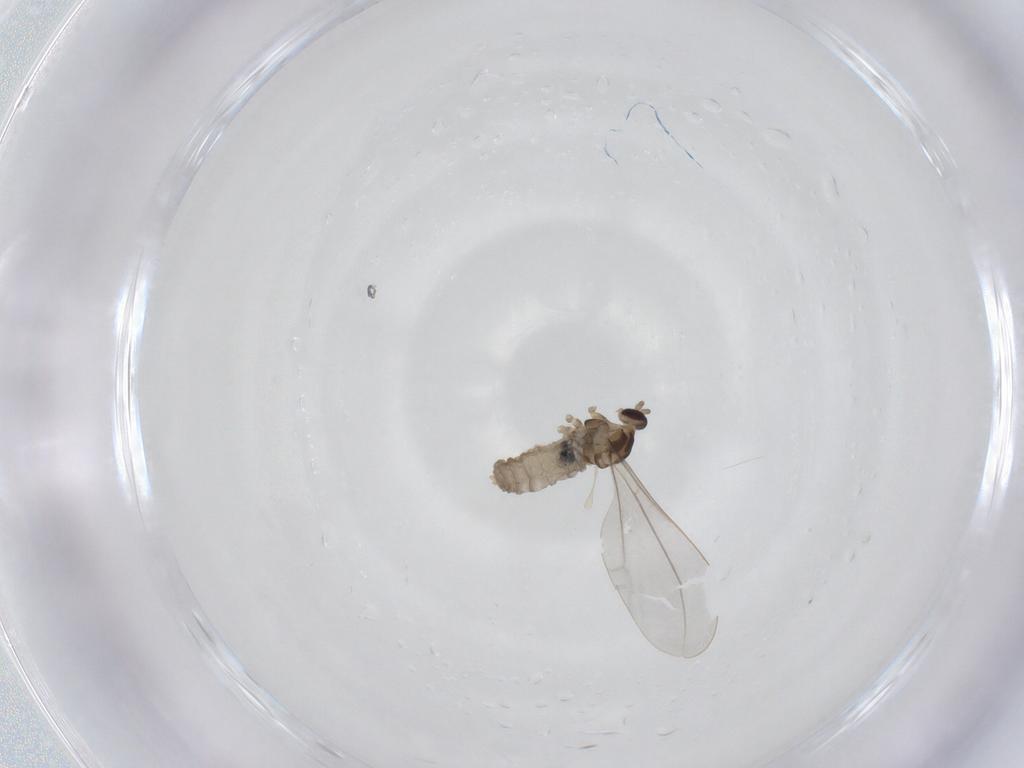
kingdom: Animalia
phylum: Arthropoda
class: Insecta
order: Diptera
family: Cecidomyiidae
